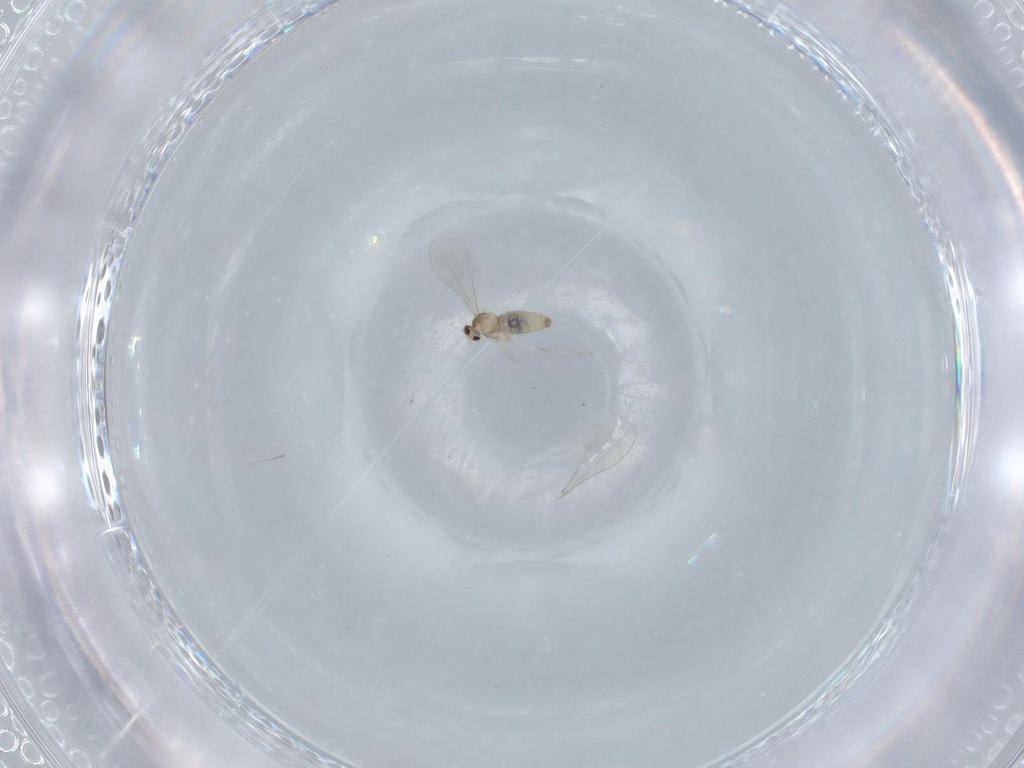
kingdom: Animalia
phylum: Arthropoda
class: Insecta
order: Diptera
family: Cecidomyiidae
